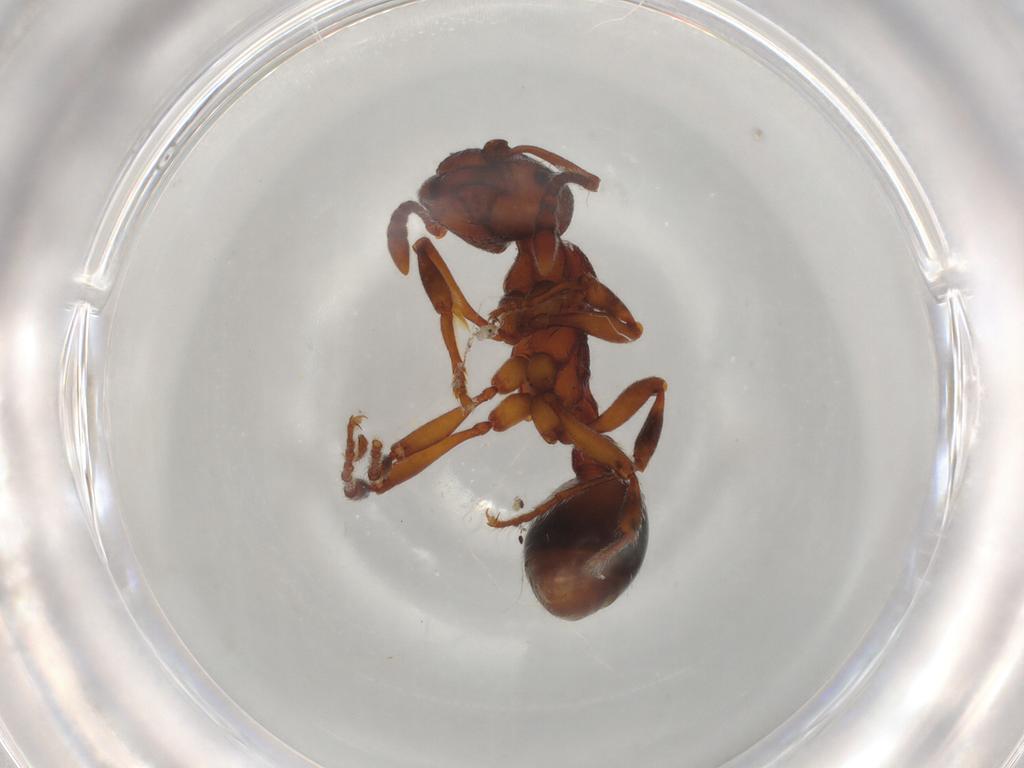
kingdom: Animalia
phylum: Arthropoda
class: Insecta
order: Hymenoptera
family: Formicidae
